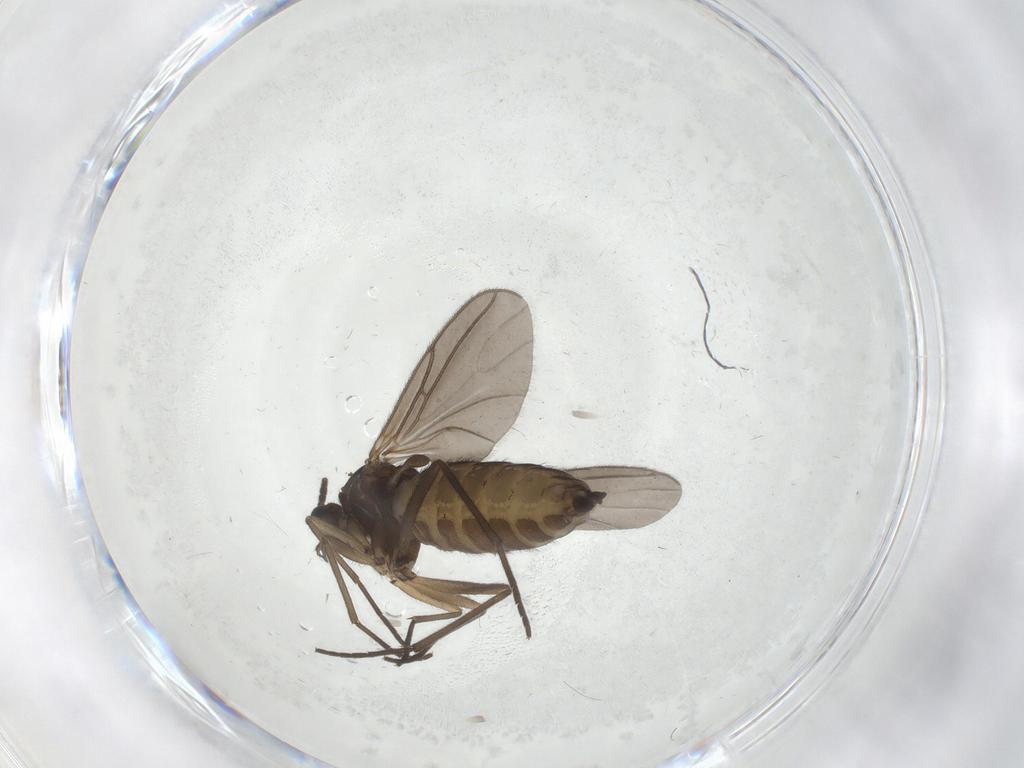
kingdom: Animalia
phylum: Arthropoda
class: Insecta
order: Diptera
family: Sciaridae
